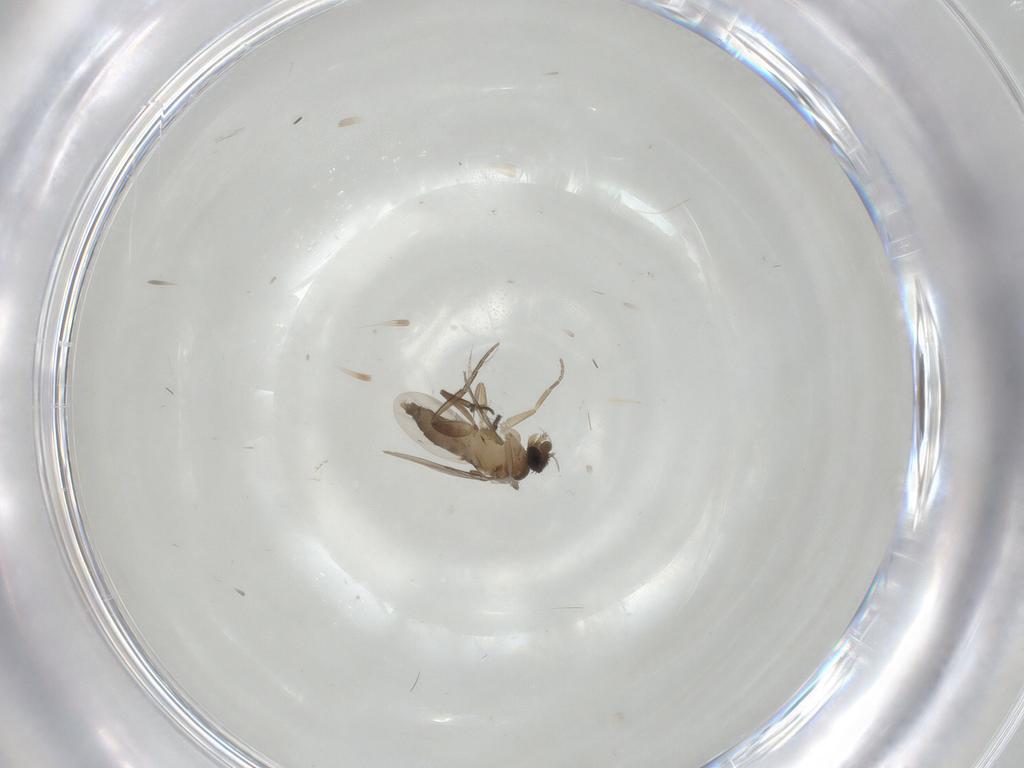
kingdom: Animalia
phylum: Arthropoda
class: Insecta
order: Diptera
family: Phoridae
